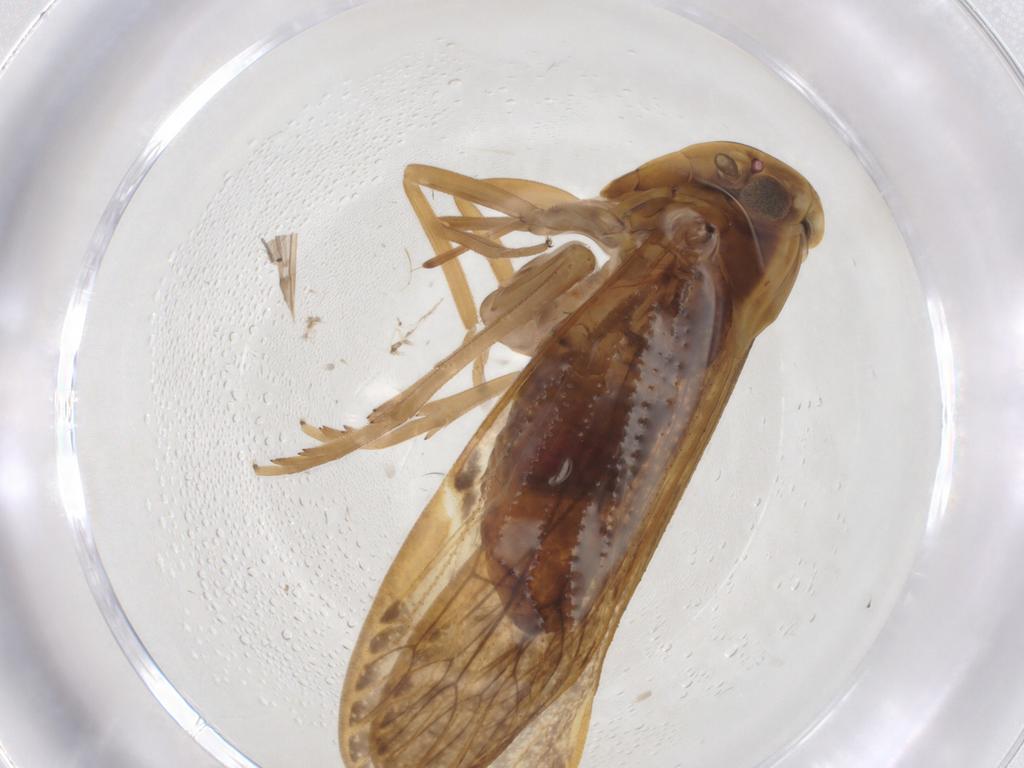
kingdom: Animalia
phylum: Arthropoda
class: Insecta
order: Hemiptera
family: Cixiidae
